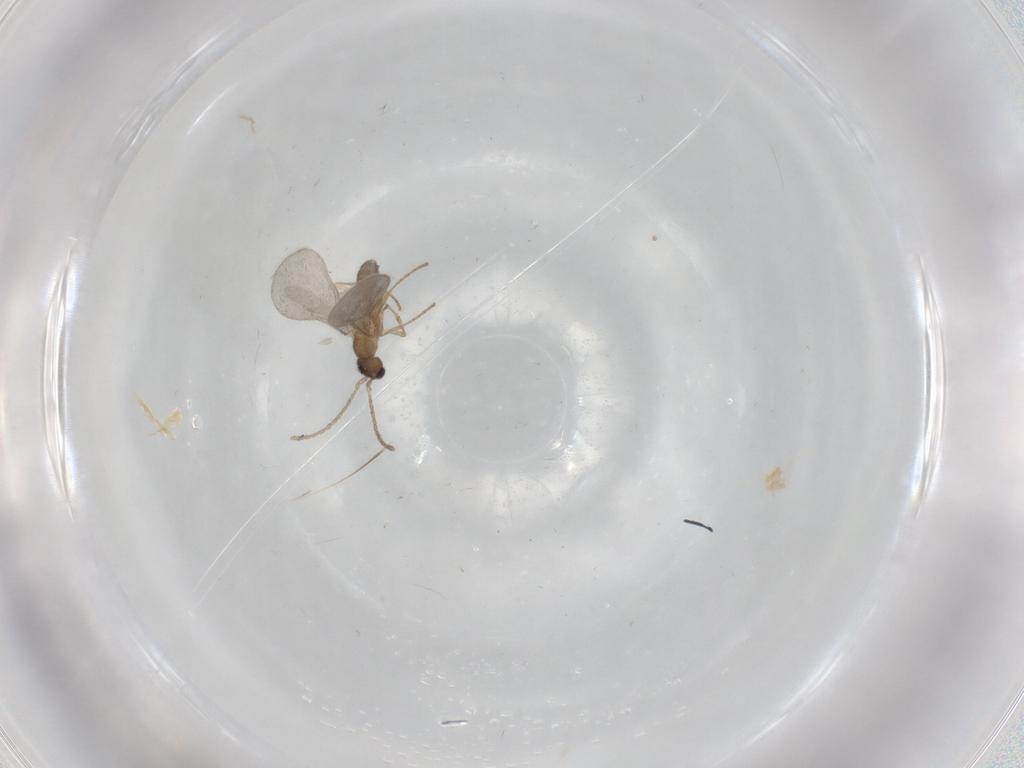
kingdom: Animalia
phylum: Arthropoda
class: Insecta
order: Hymenoptera
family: Formicidae
